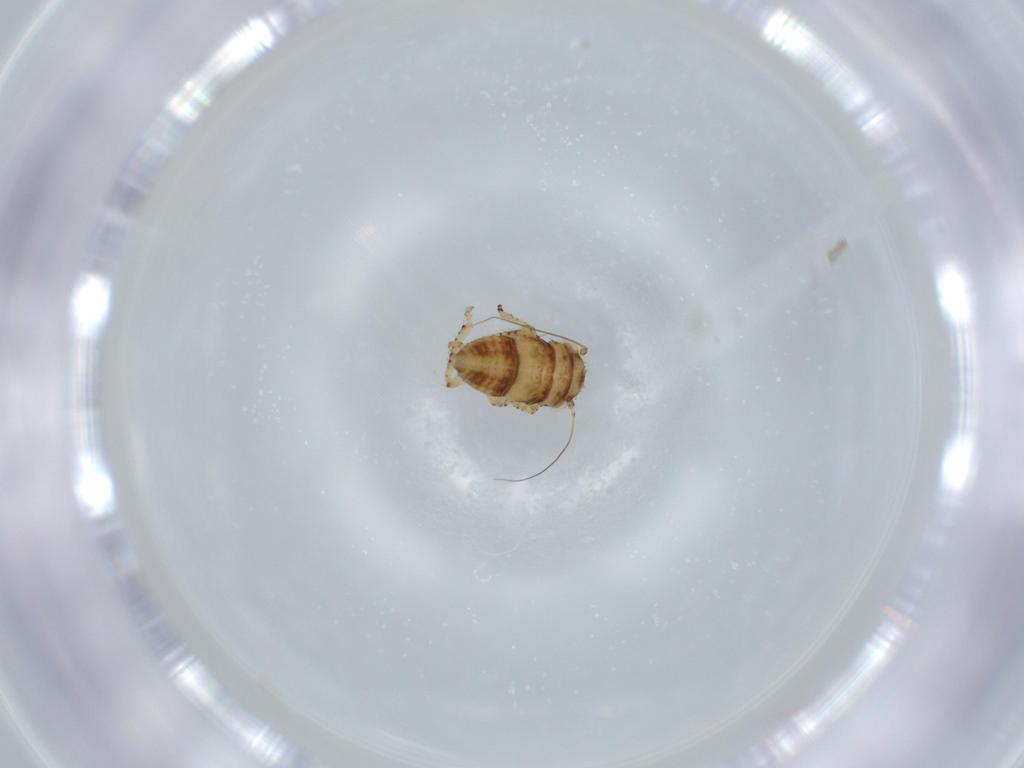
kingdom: Animalia
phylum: Arthropoda
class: Insecta
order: Hemiptera
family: Cicadellidae
